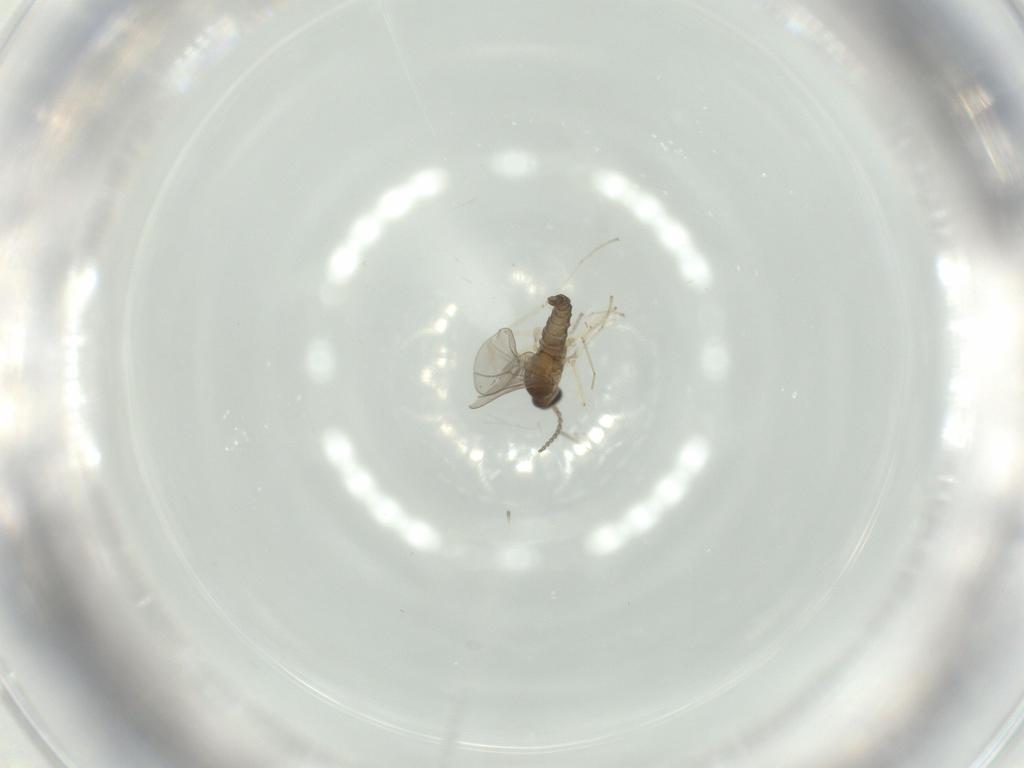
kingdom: Animalia
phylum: Arthropoda
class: Insecta
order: Diptera
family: Cecidomyiidae
